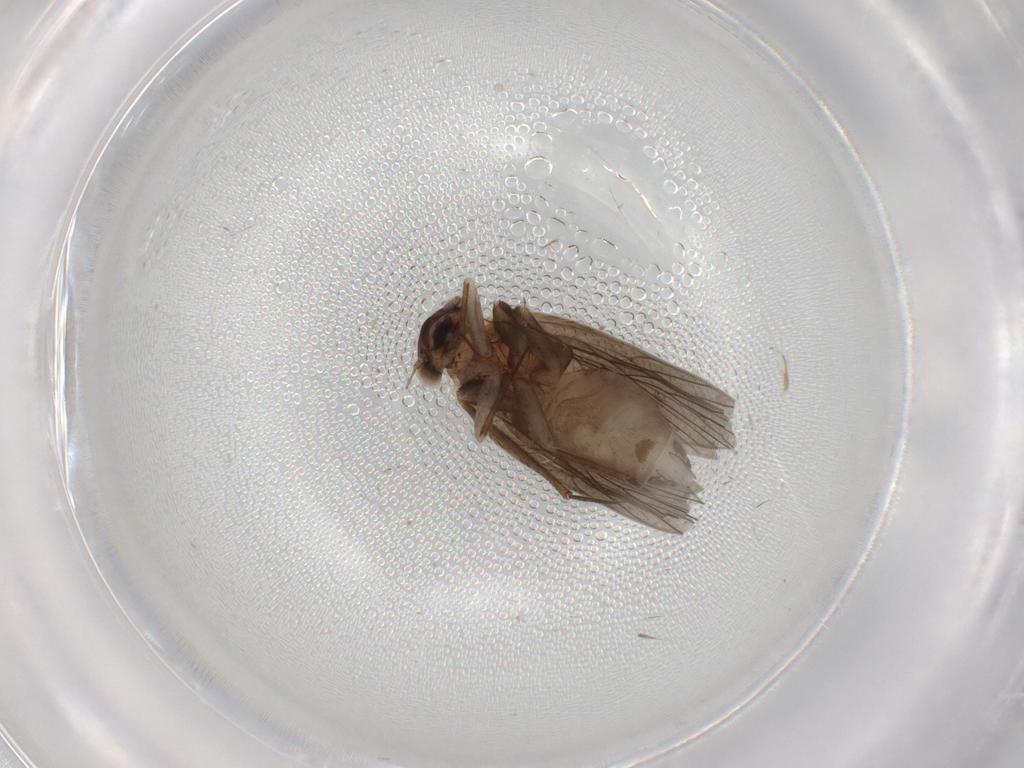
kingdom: Animalia
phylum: Arthropoda
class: Insecta
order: Psocodea
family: Lepidopsocidae
